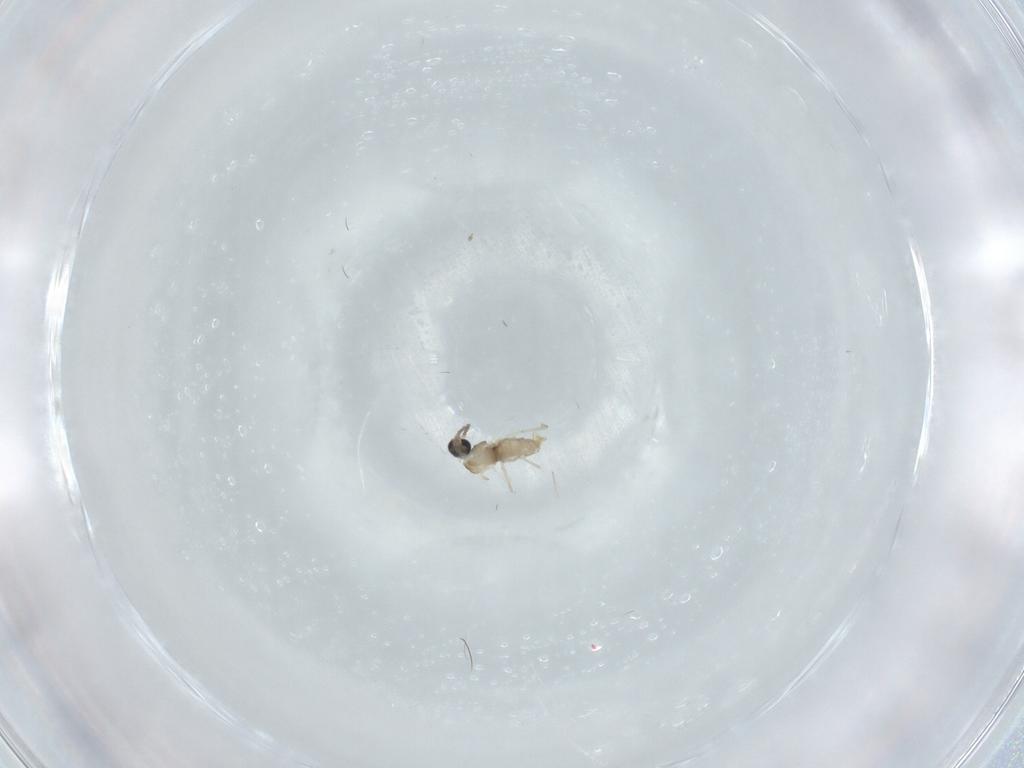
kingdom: Animalia
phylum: Arthropoda
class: Insecta
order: Diptera
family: Cecidomyiidae
